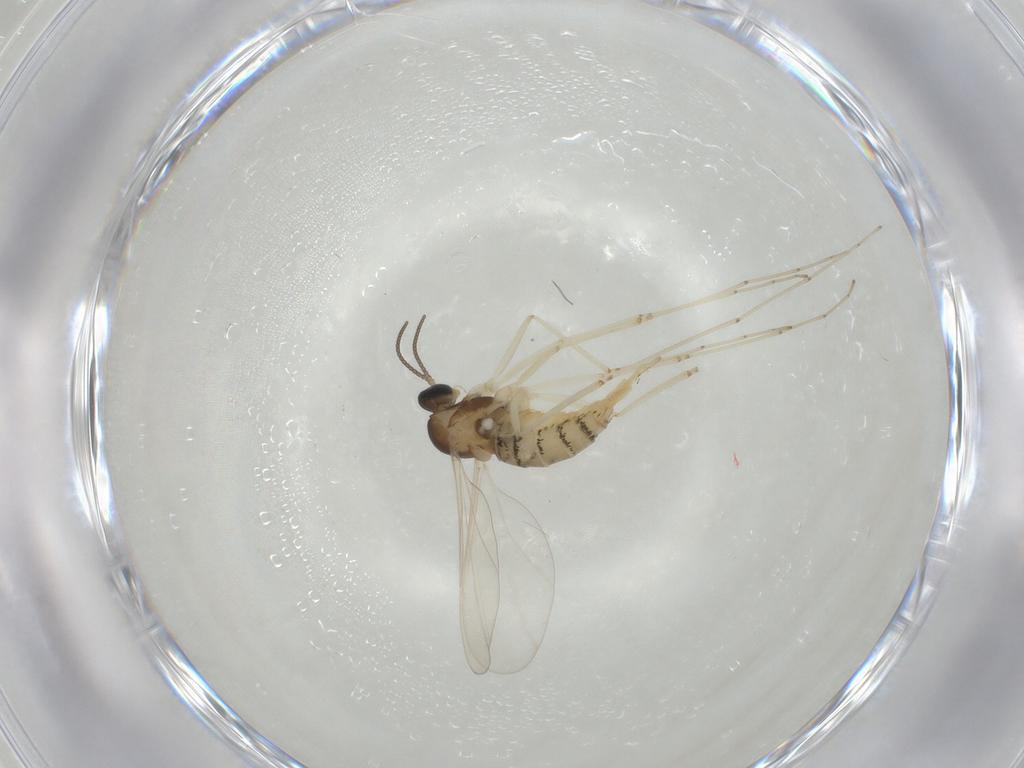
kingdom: Animalia
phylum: Arthropoda
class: Insecta
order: Diptera
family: Cecidomyiidae
